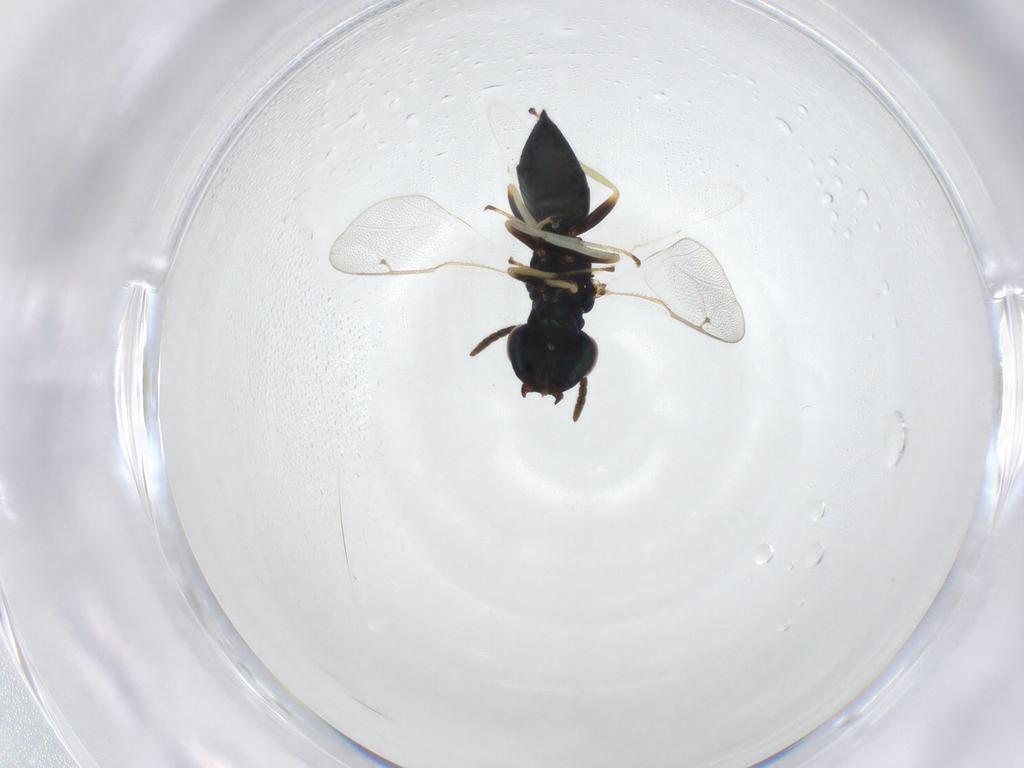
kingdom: Animalia
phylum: Arthropoda
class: Insecta
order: Hymenoptera
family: Pteromalidae
